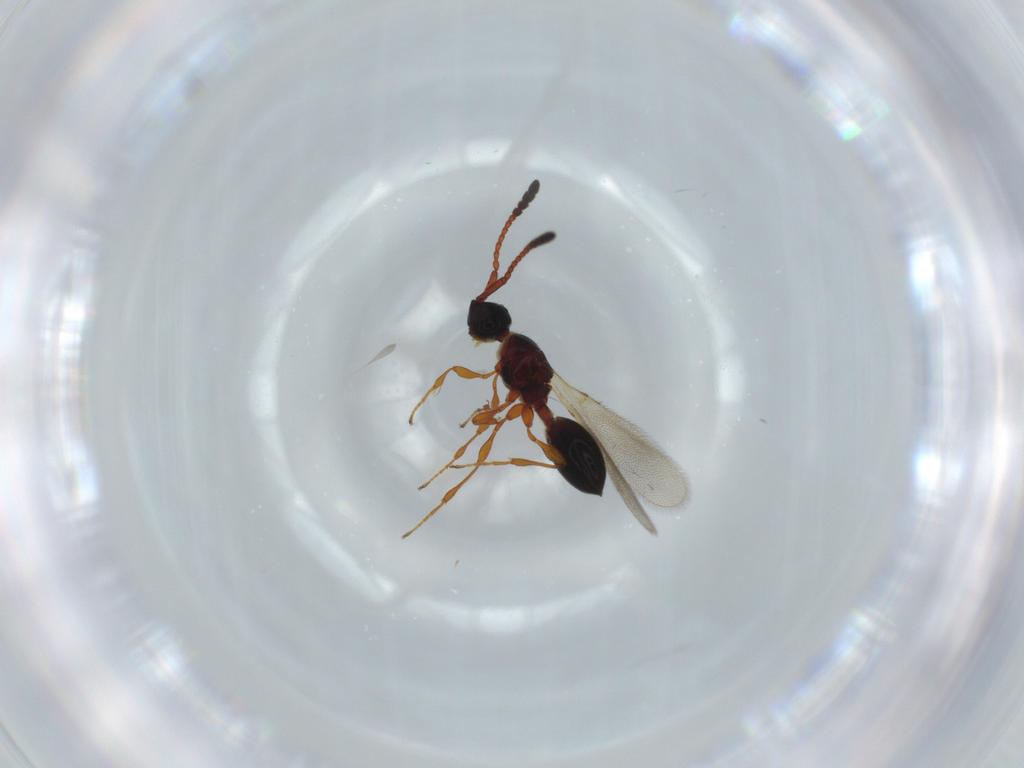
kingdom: Animalia
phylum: Arthropoda
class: Insecta
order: Hymenoptera
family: Diapriidae
